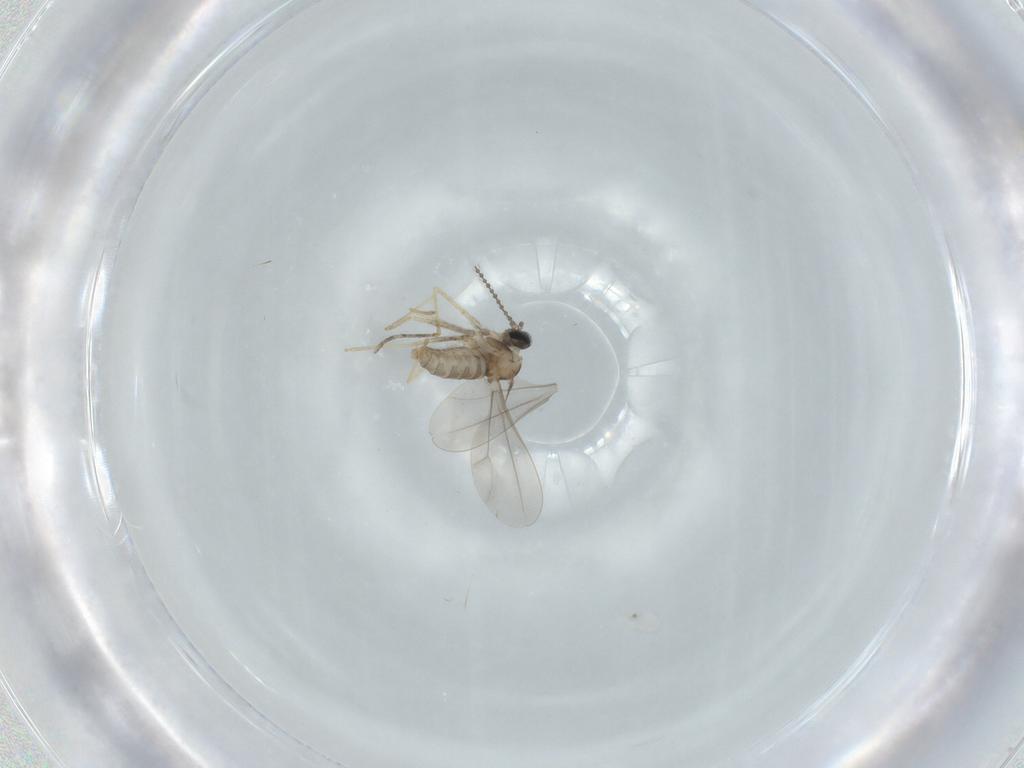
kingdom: Animalia
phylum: Arthropoda
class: Insecta
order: Diptera
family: Cecidomyiidae
